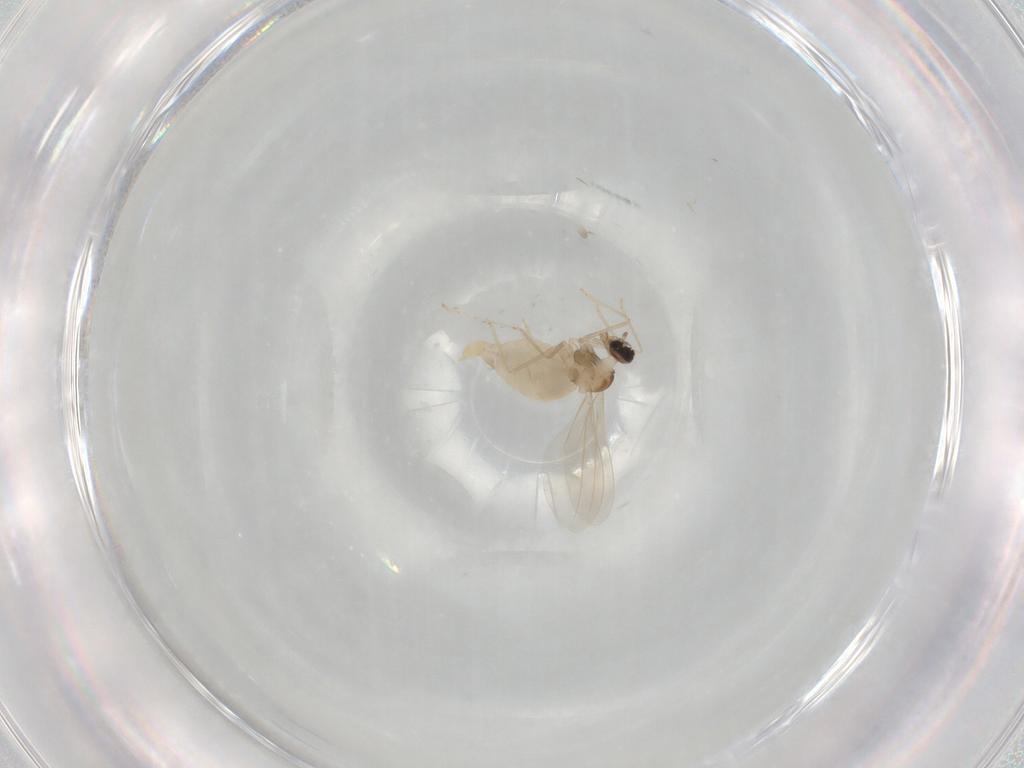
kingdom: Animalia
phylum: Arthropoda
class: Insecta
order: Diptera
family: Cecidomyiidae
